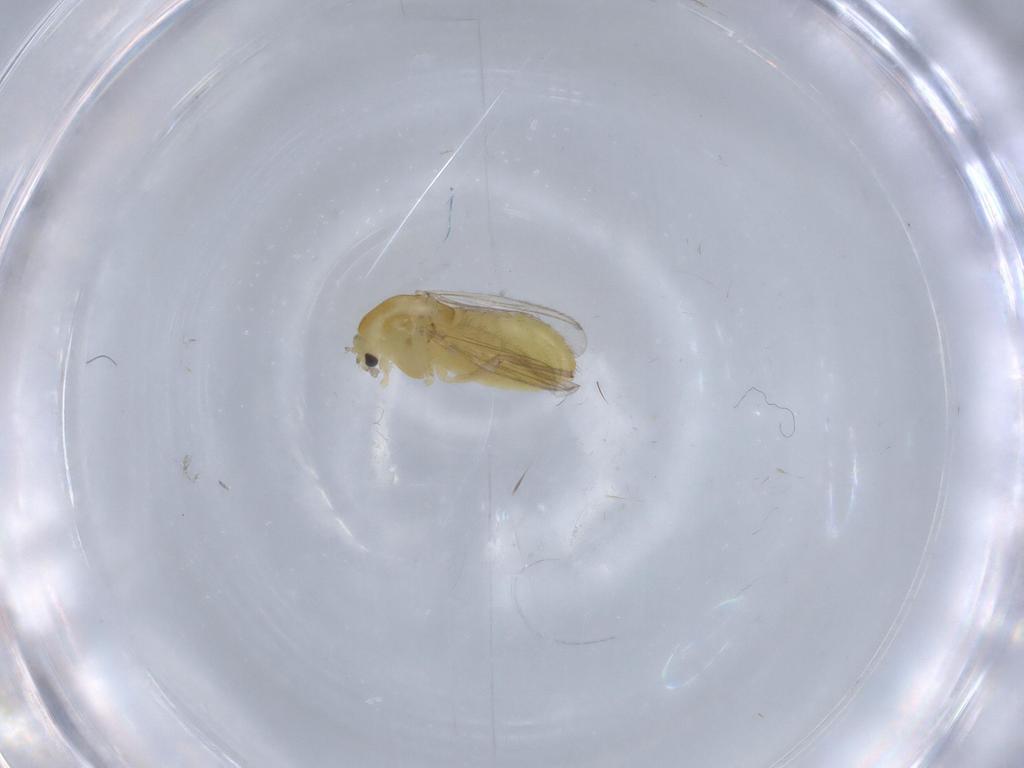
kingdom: Animalia
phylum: Arthropoda
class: Insecta
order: Diptera
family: Chironomidae
